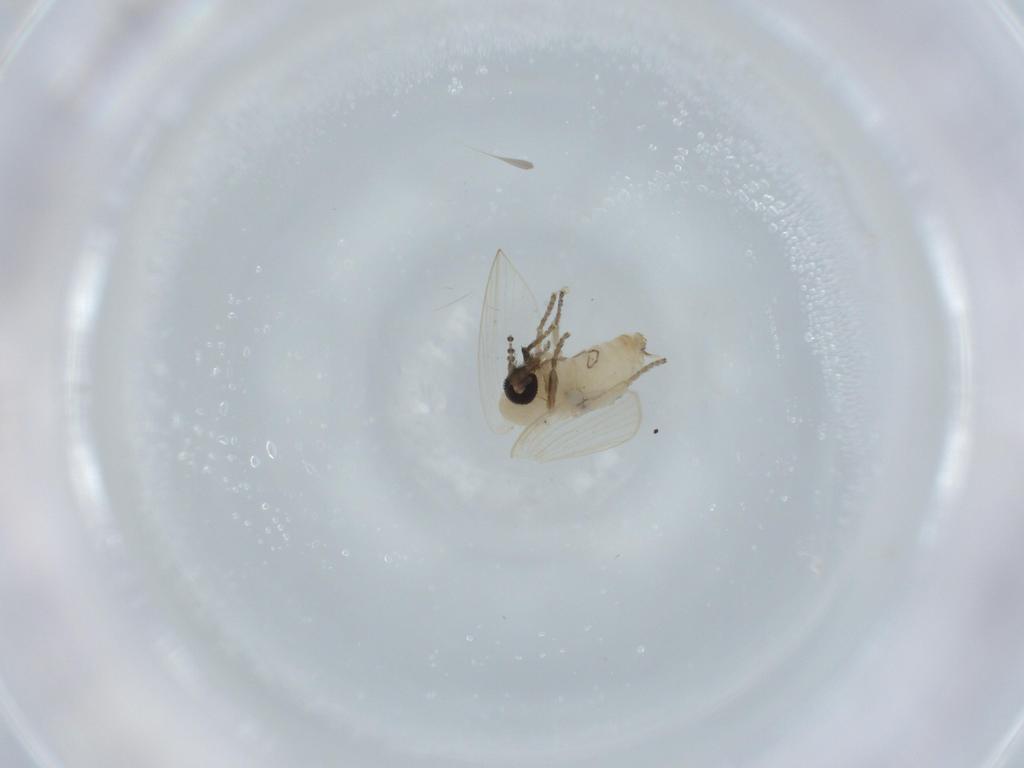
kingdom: Animalia
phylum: Arthropoda
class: Insecta
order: Diptera
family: Psychodidae
